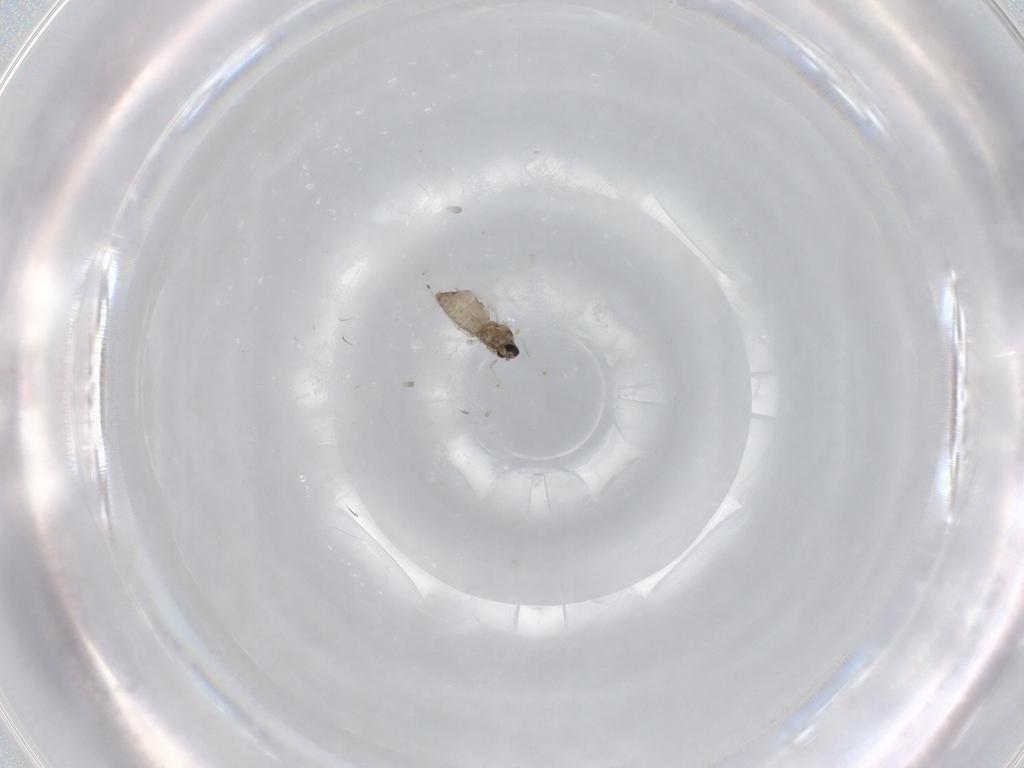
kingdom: Animalia
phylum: Arthropoda
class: Insecta
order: Diptera
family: Cecidomyiidae
